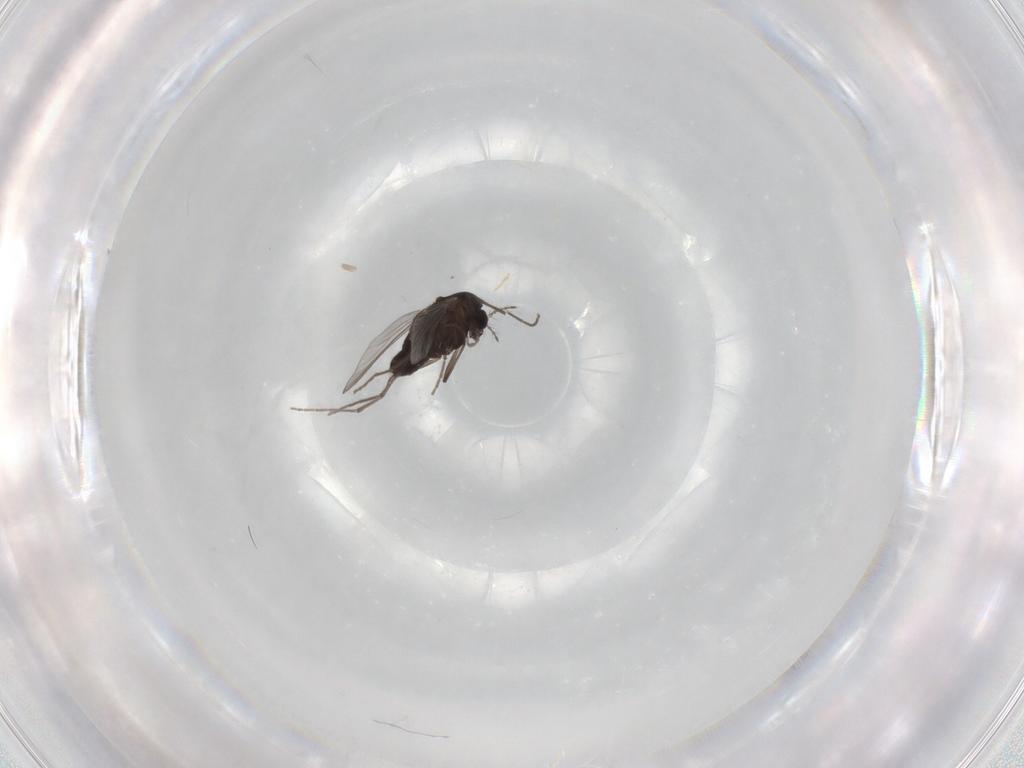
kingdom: Animalia
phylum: Arthropoda
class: Insecta
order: Diptera
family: Chironomidae
